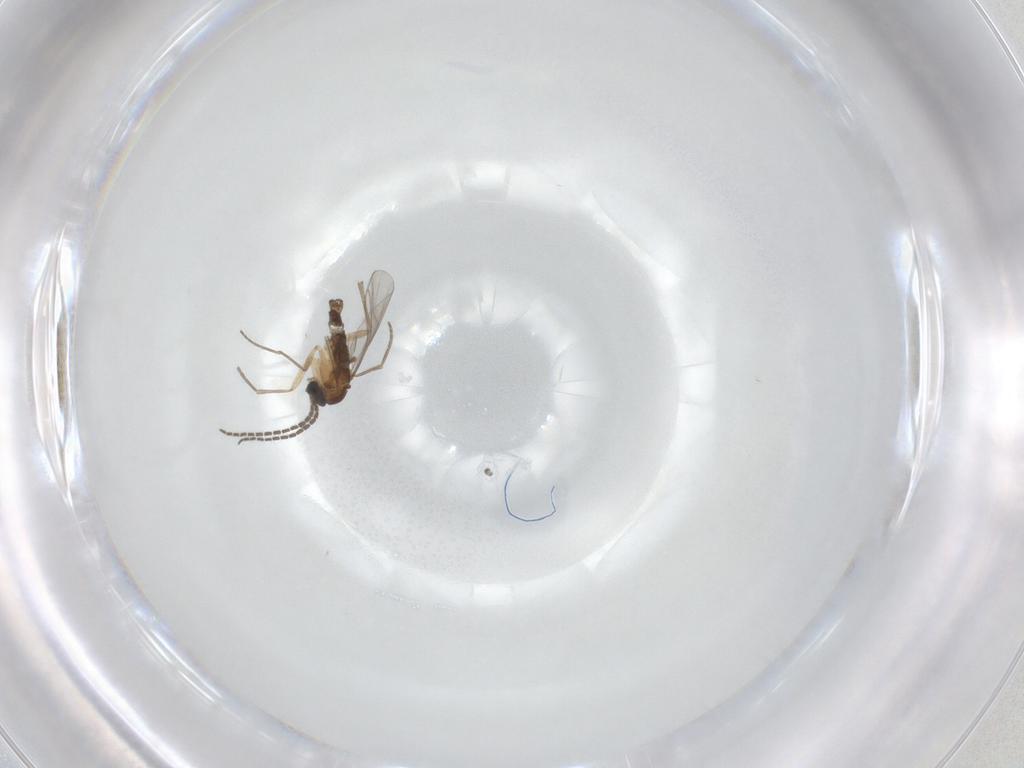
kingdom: Animalia
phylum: Arthropoda
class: Insecta
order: Diptera
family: Sciaridae
